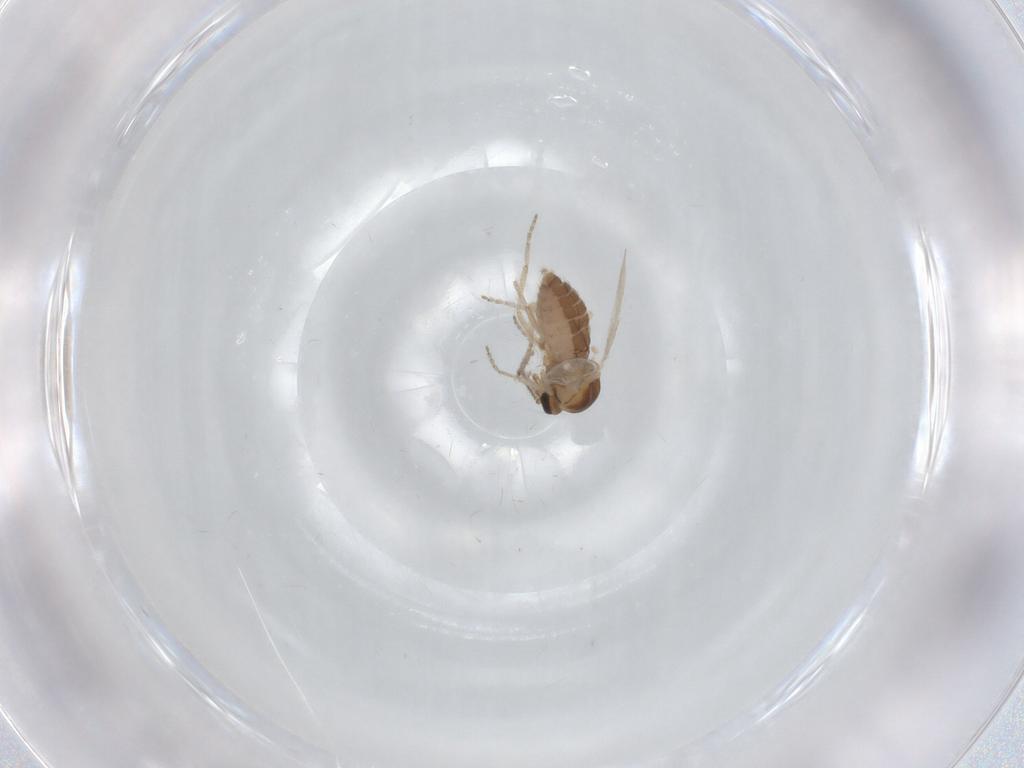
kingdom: Animalia
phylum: Arthropoda
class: Insecta
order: Diptera
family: Ceratopogonidae
